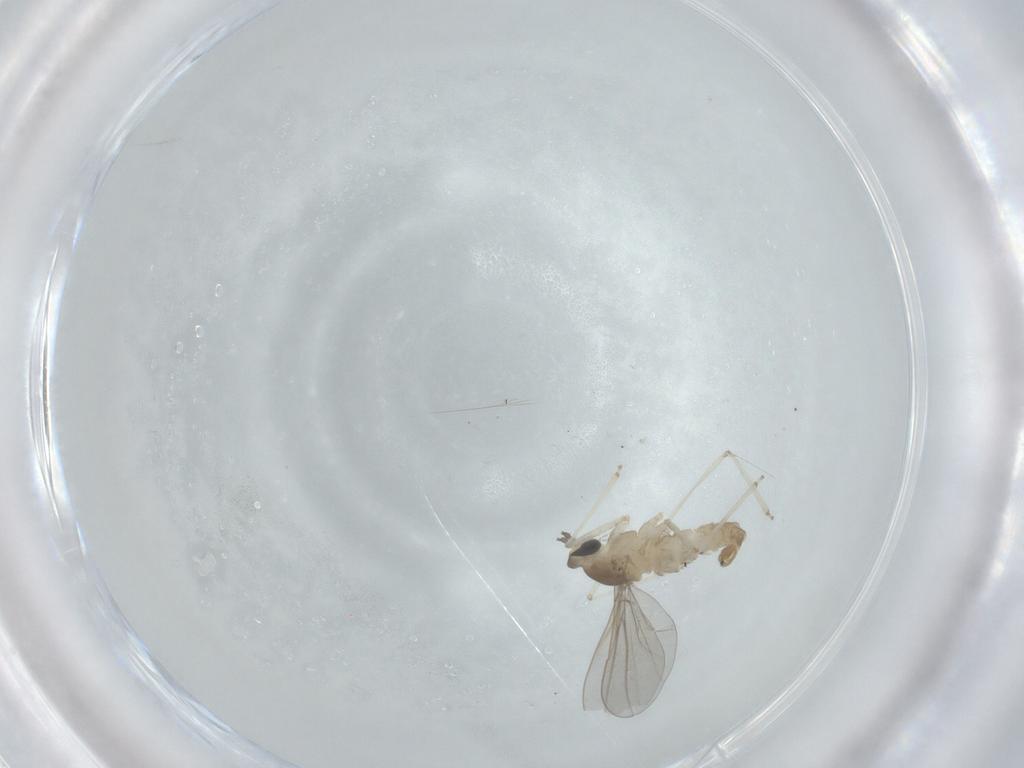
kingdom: Animalia
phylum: Arthropoda
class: Insecta
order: Diptera
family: Cecidomyiidae
